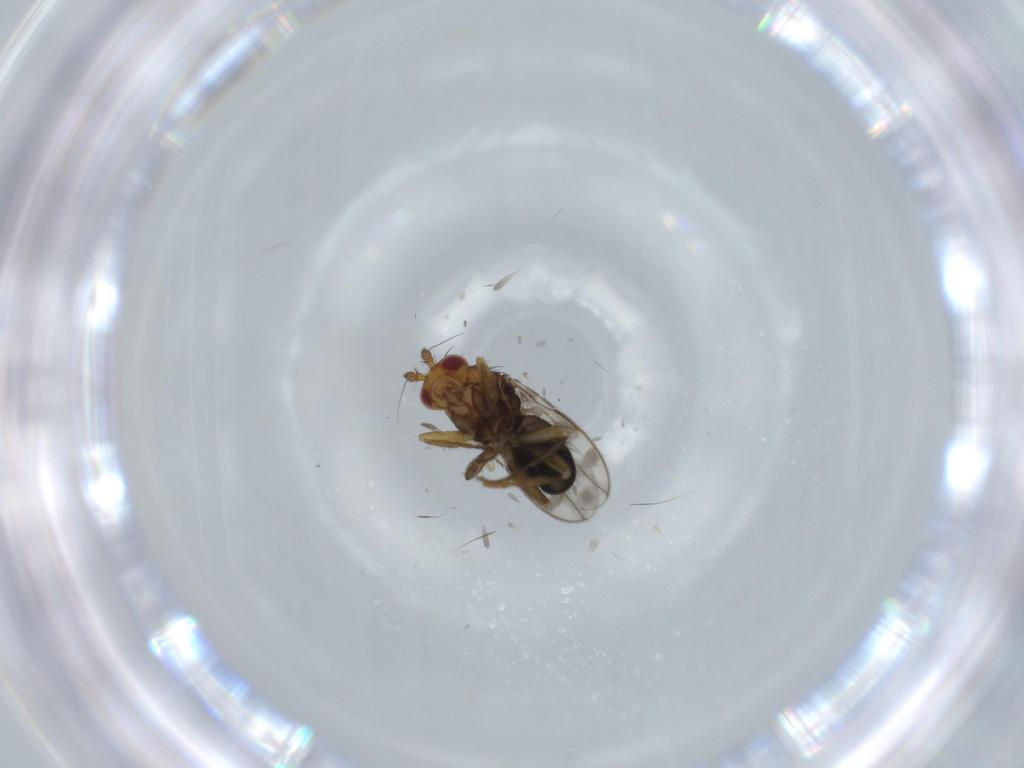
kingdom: Animalia
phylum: Arthropoda
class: Insecta
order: Diptera
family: Sphaeroceridae
